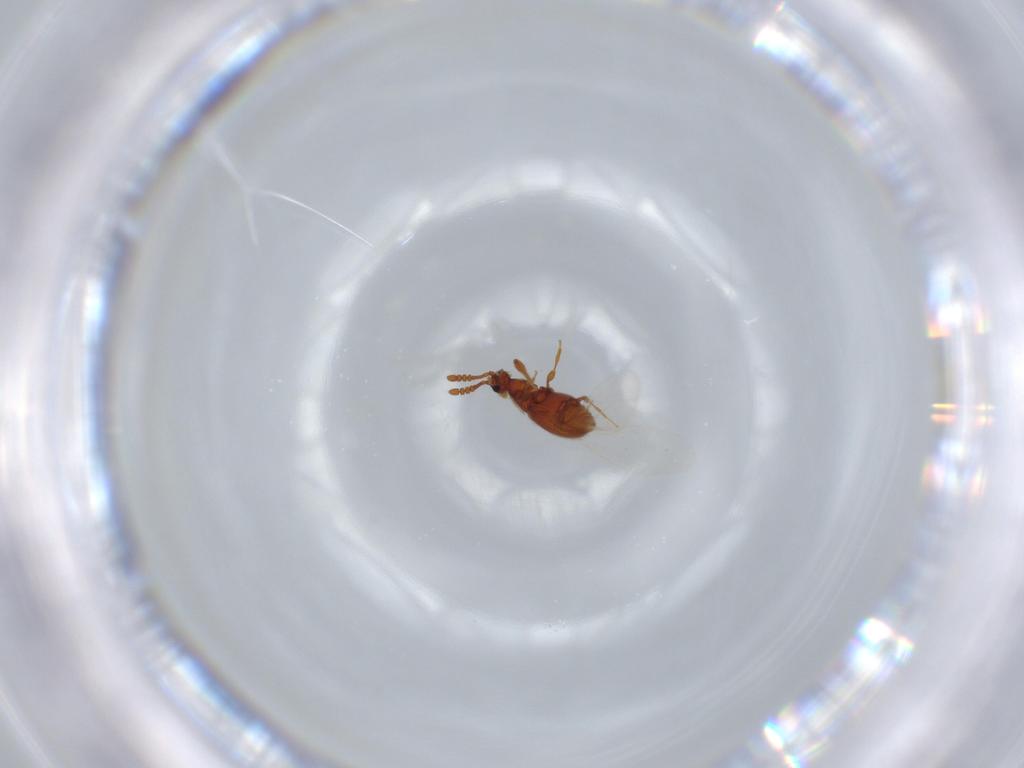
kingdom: Animalia
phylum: Arthropoda
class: Insecta
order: Coleoptera
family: Staphylinidae
